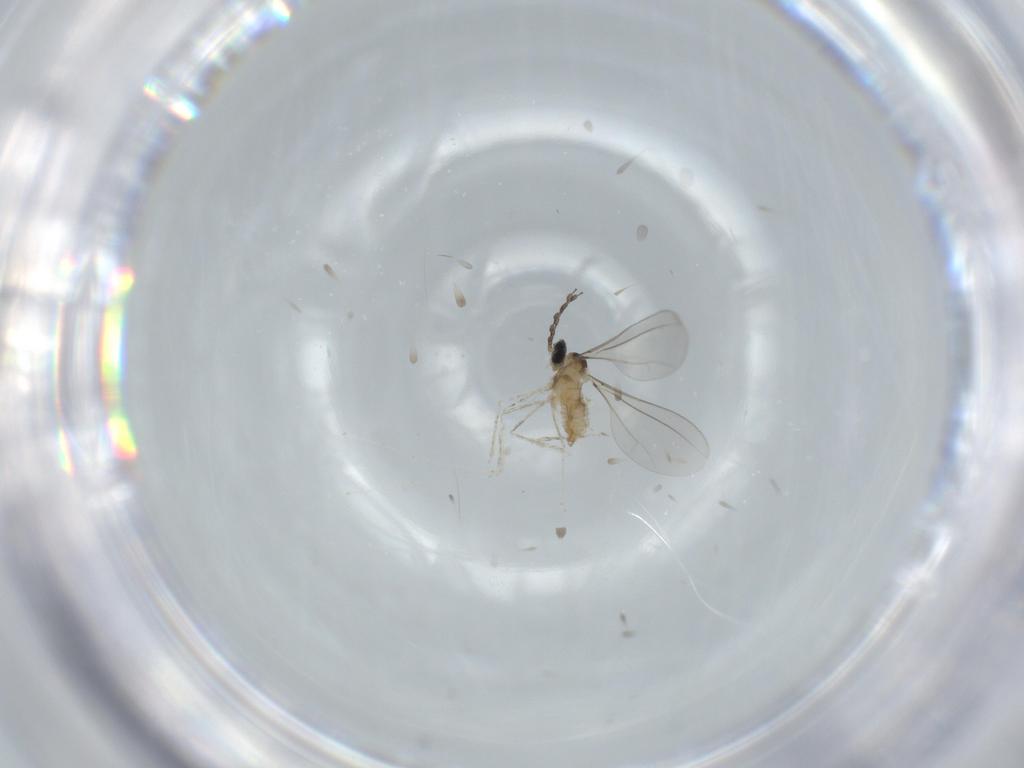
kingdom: Animalia
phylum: Arthropoda
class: Insecta
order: Diptera
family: Cecidomyiidae
